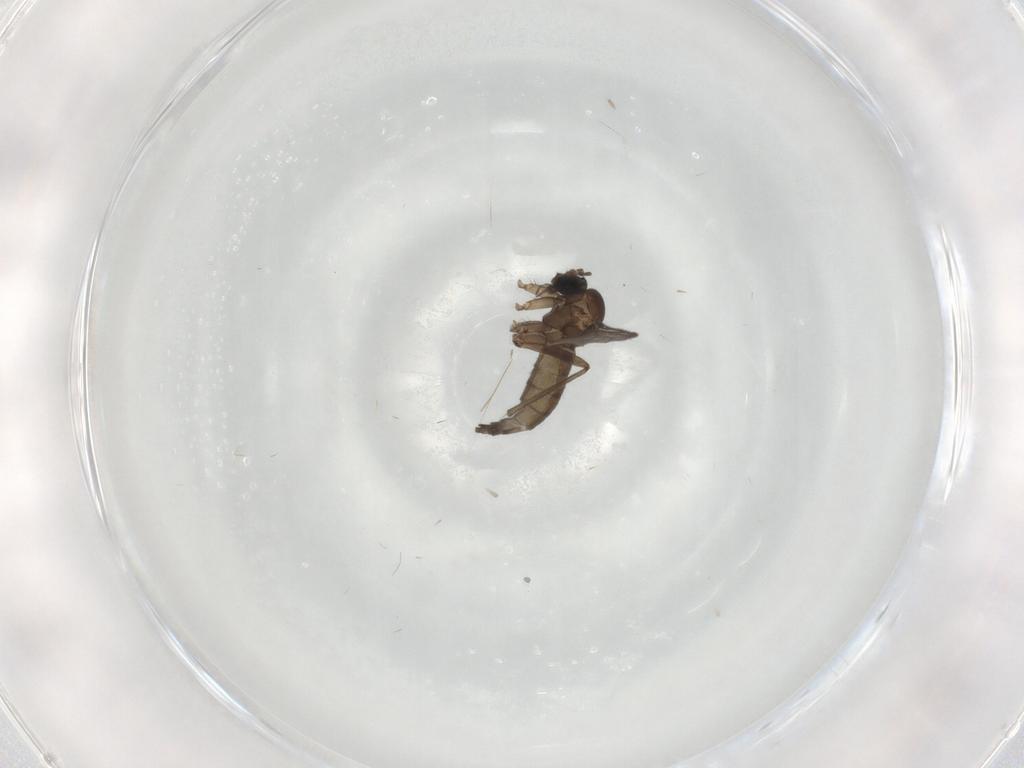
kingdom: Animalia
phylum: Arthropoda
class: Insecta
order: Diptera
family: Sciaridae
